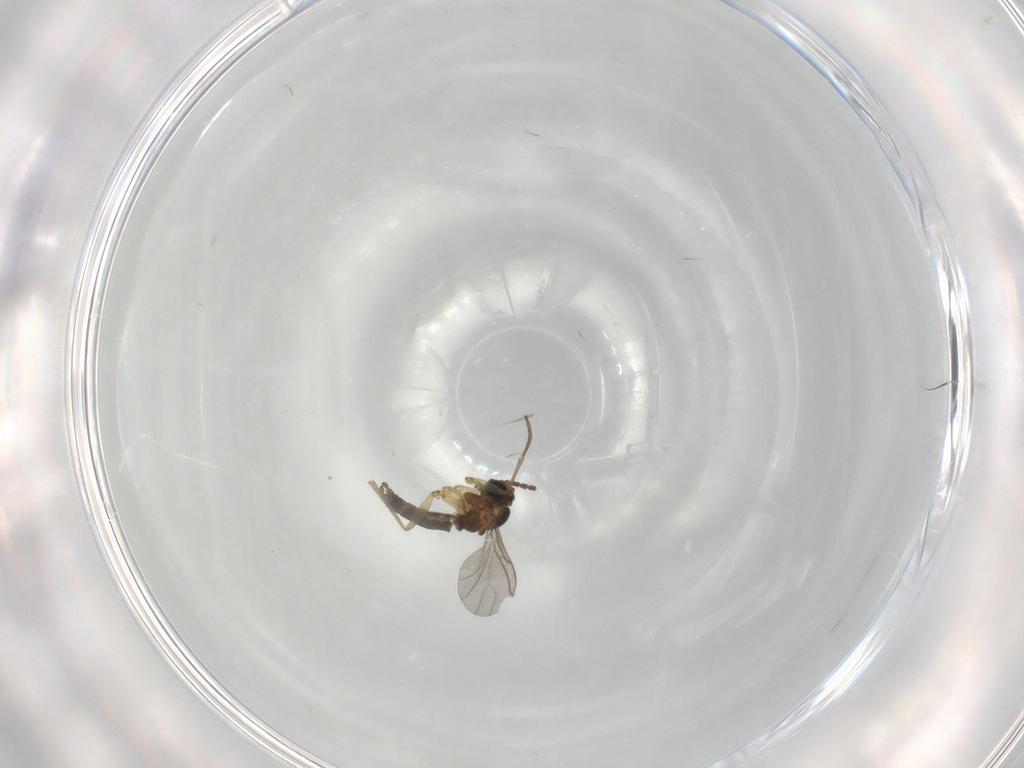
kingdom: Animalia
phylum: Arthropoda
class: Insecta
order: Diptera
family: Sciaridae
